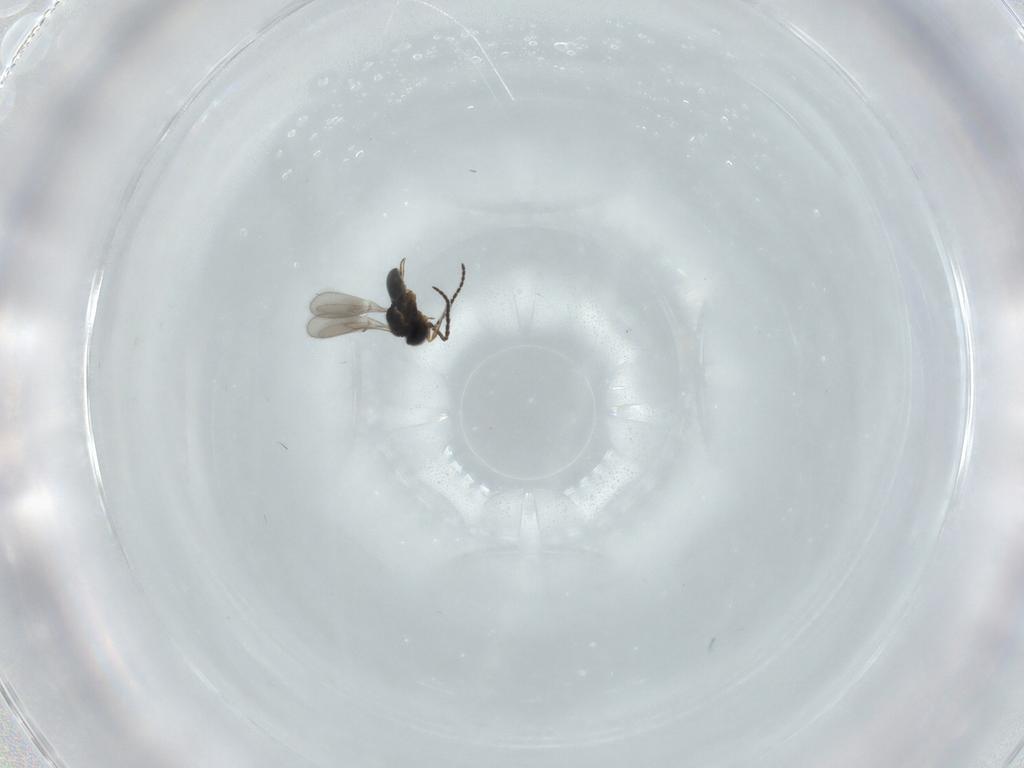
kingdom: Animalia
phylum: Arthropoda
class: Insecta
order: Hymenoptera
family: Scelionidae
